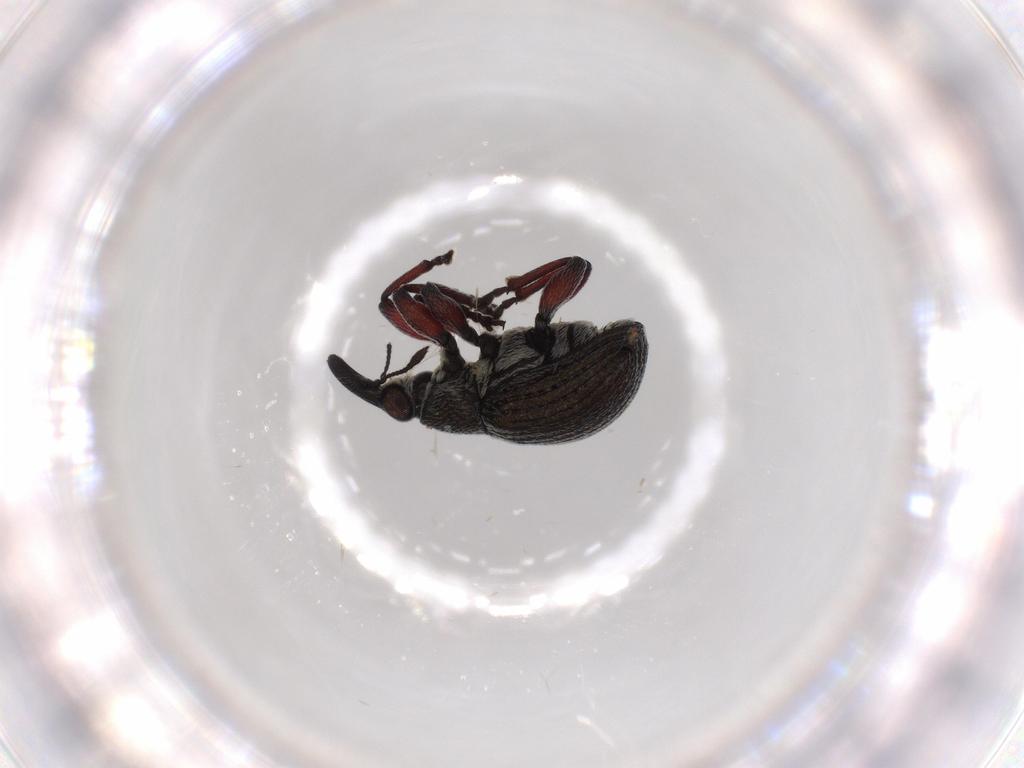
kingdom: Animalia
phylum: Arthropoda
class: Insecta
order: Coleoptera
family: Brentidae
